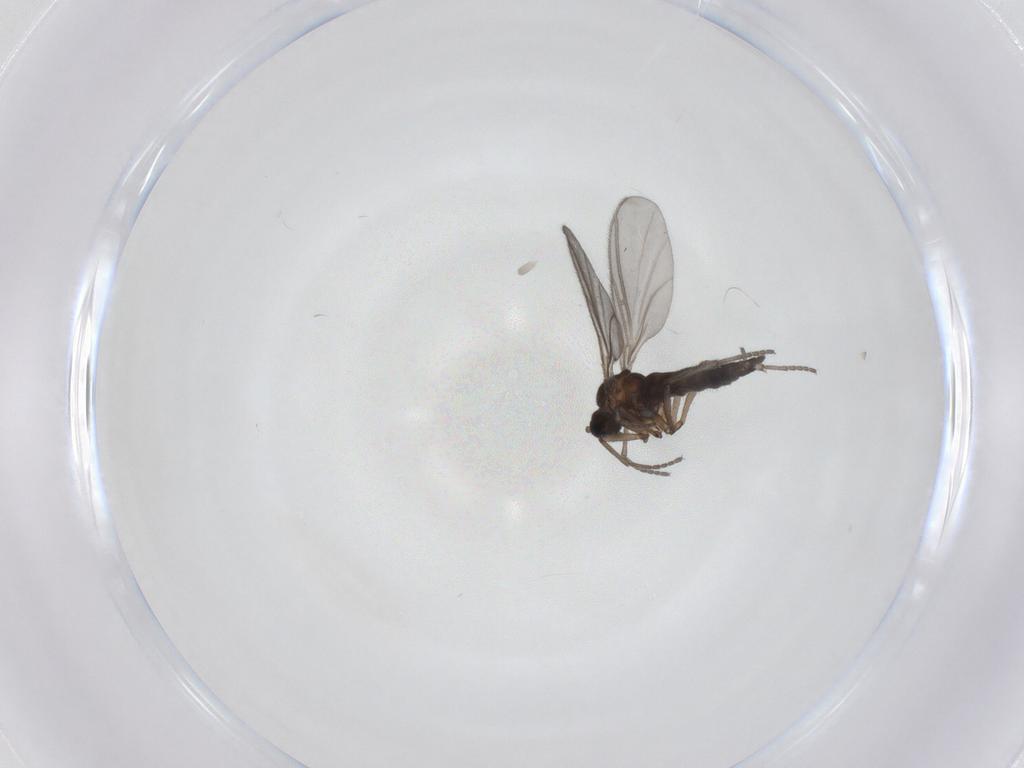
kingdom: Animalia
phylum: Arthropoda
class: Insecta
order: Diptera
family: Sciaridae
